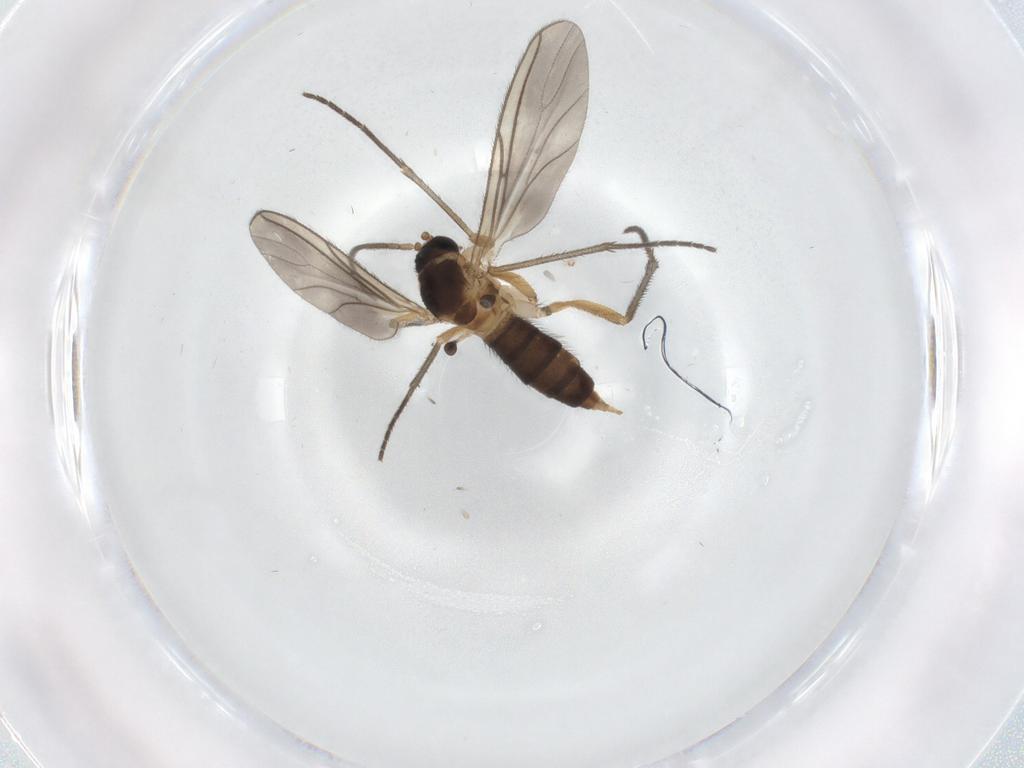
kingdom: Animalia
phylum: Arthropoda
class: Insecta
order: Diptera
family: Sciaridae
